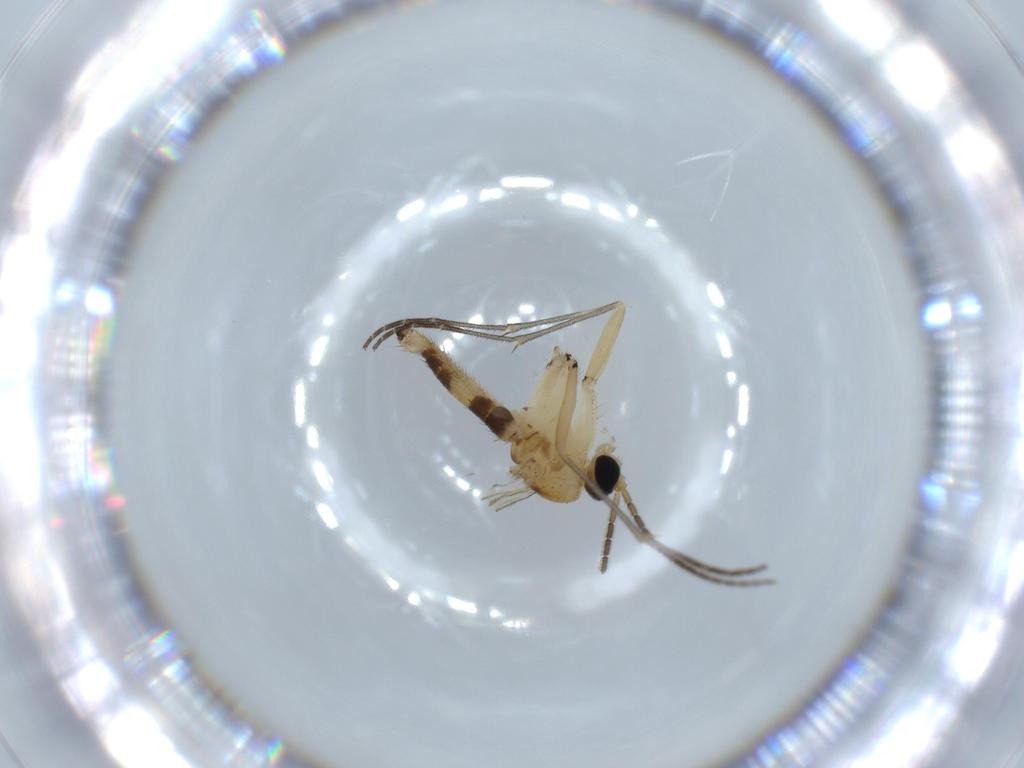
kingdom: Animalia
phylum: Arthropoda
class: Insecta
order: Diptera
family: Sciaridae
